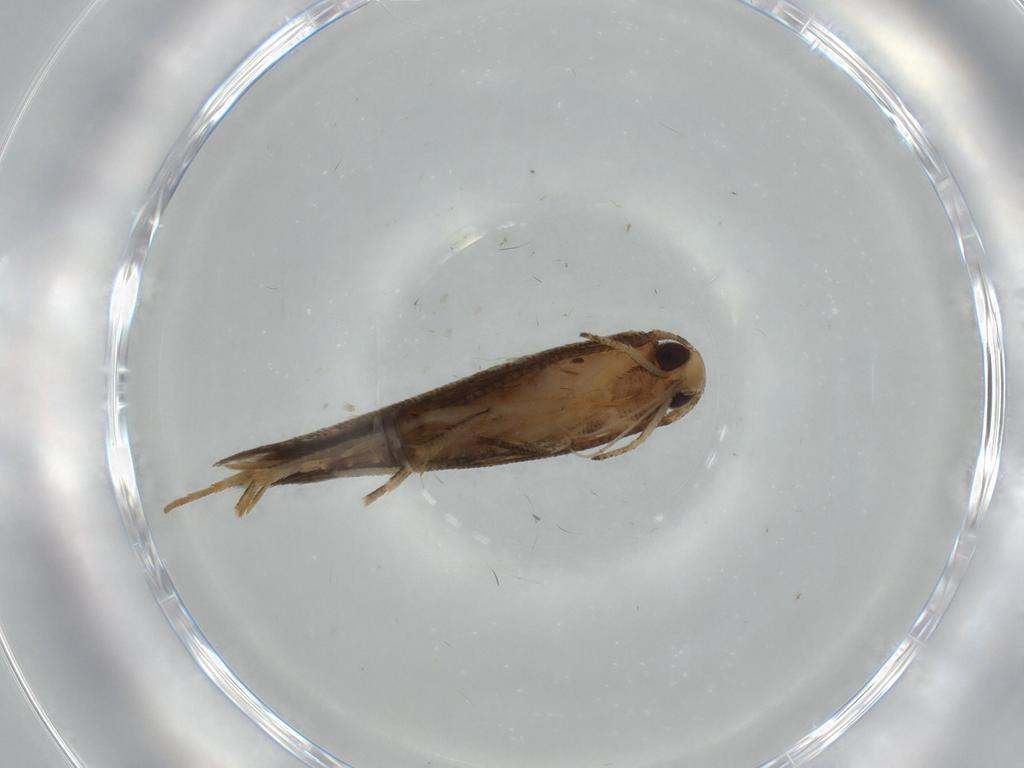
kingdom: Animalia
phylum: Arthropoda
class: Insecta
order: Lepidoptera
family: Cosmopterigidae
